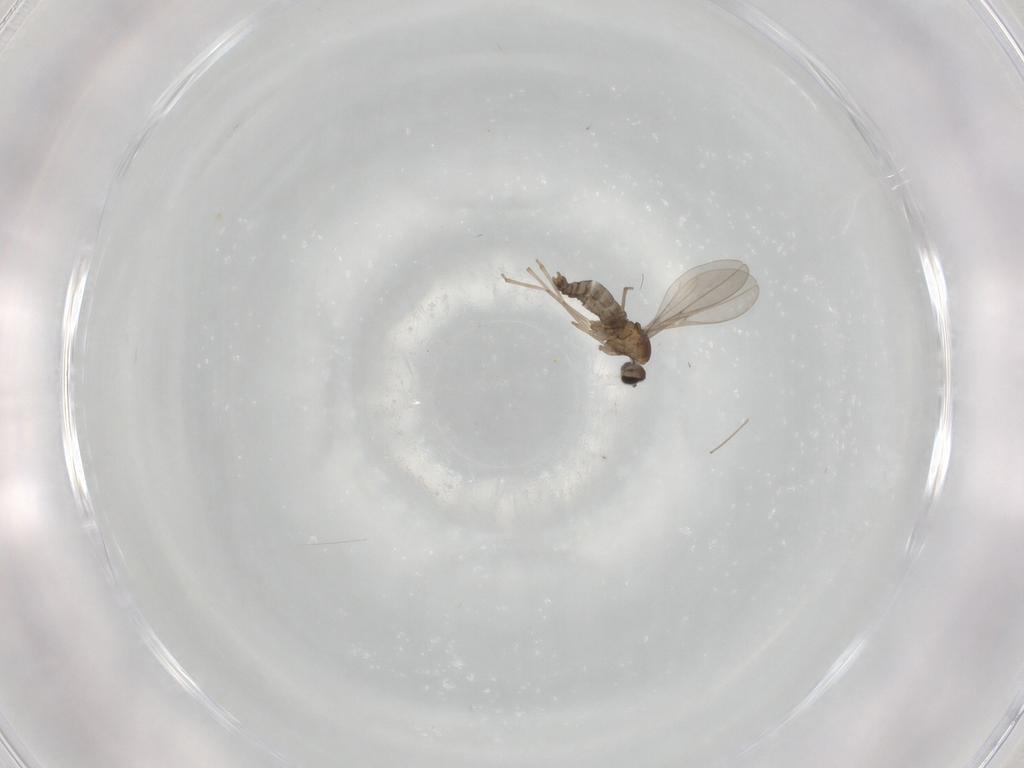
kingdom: Animalia
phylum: Arthropoda
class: Insecta
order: Diptera
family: Cecidomyiidae
